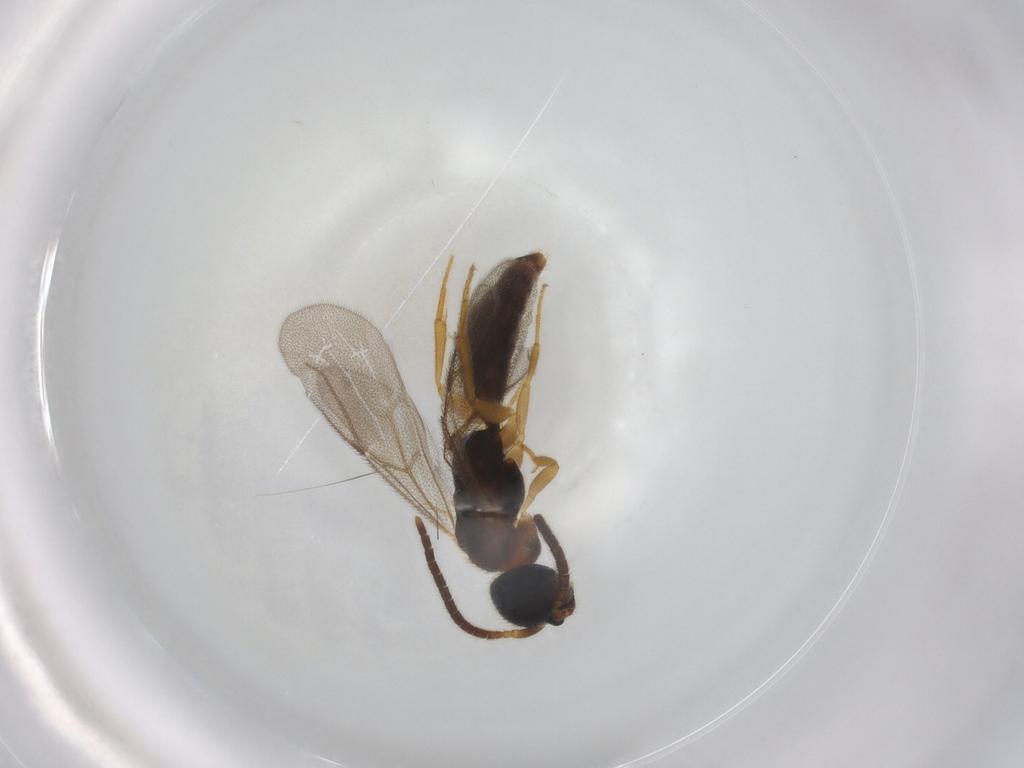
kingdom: Animalia
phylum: Arthropoda
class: Insecta
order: Hymenoptera
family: Bethylidae
